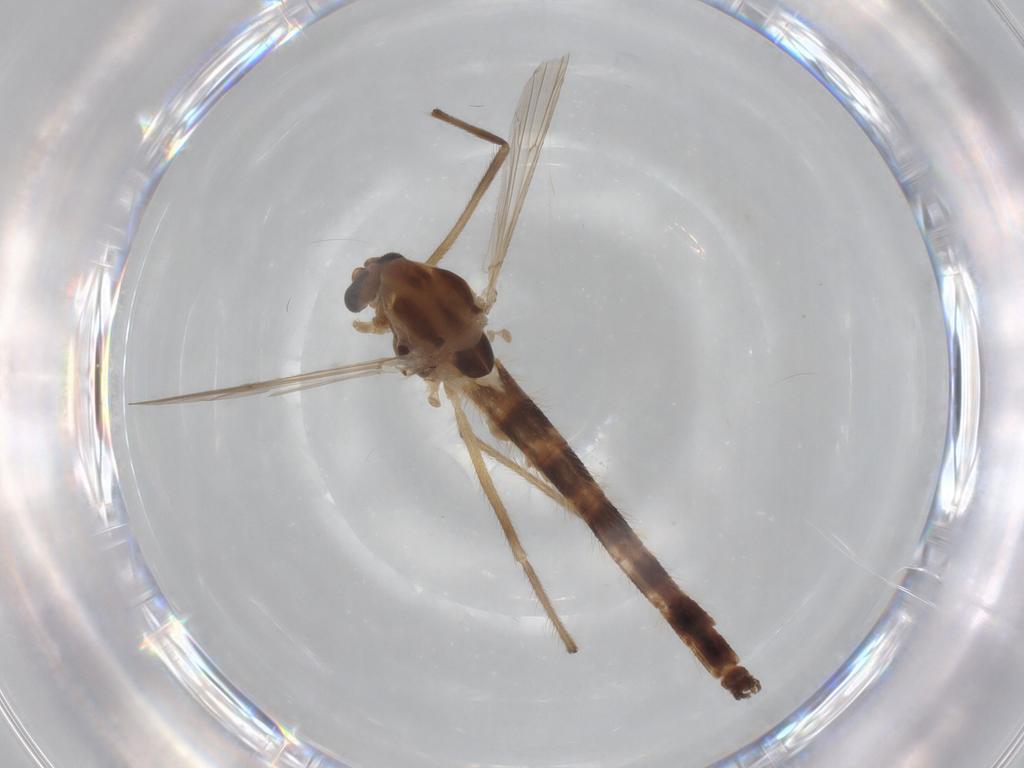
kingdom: Animalia
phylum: Arthropoda
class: Insecta
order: Diptera
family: Chironomidae
